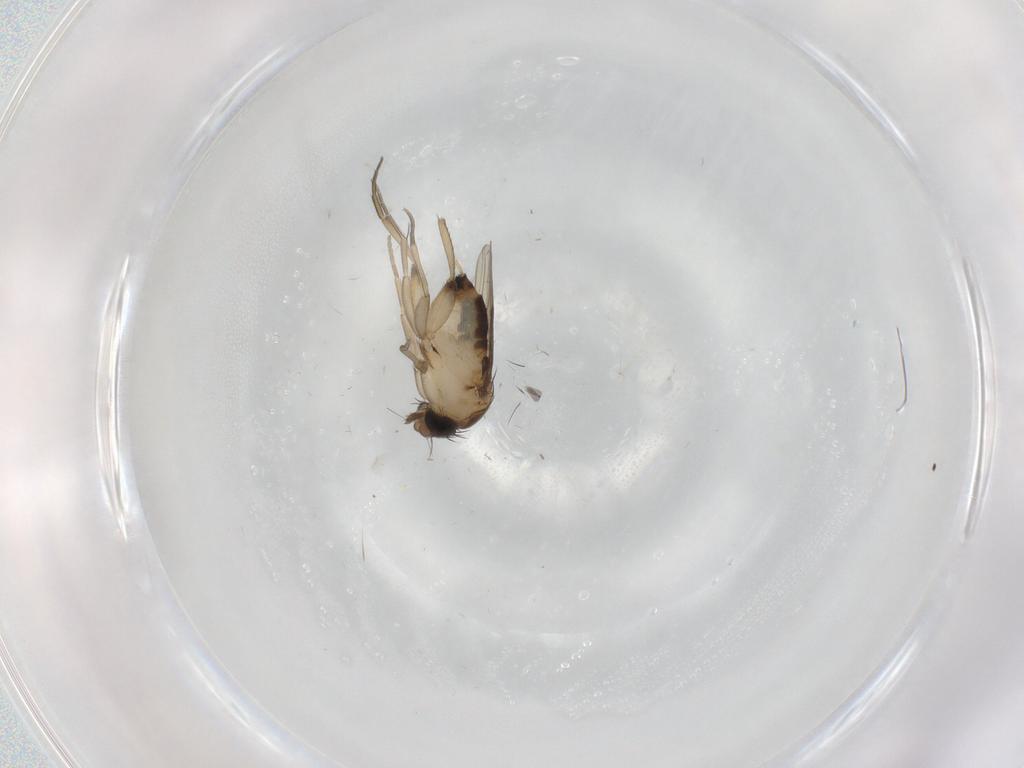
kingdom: Animalia
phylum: Arthropoda
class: Insecta
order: Diptera
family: Phoridae
